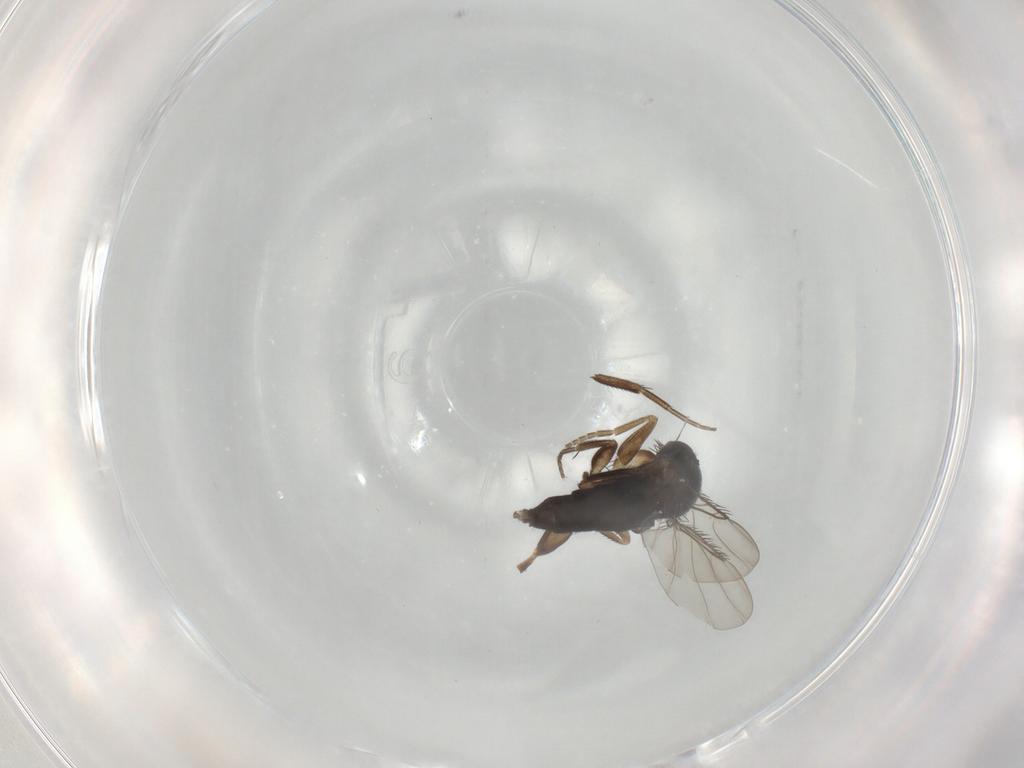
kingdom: Animalia
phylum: Arthropoda
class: Insecta
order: Diptera
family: Phoridae
